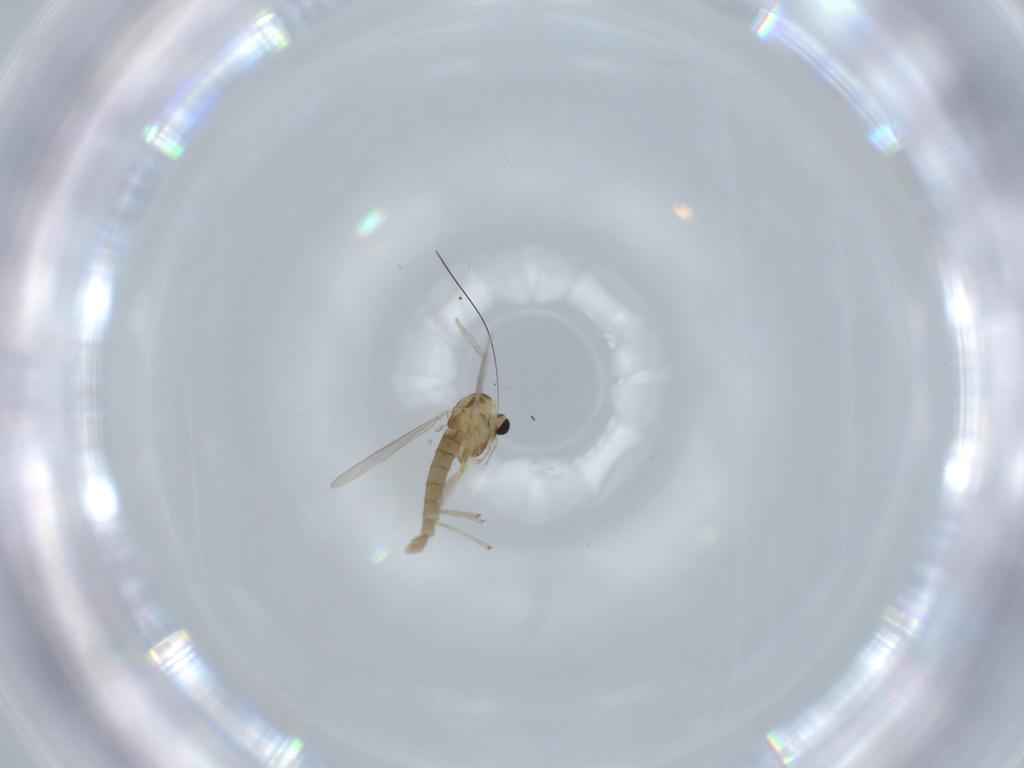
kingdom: Animalia
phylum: Arthropoda
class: Insecta
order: Diptera
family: Chironomidae
